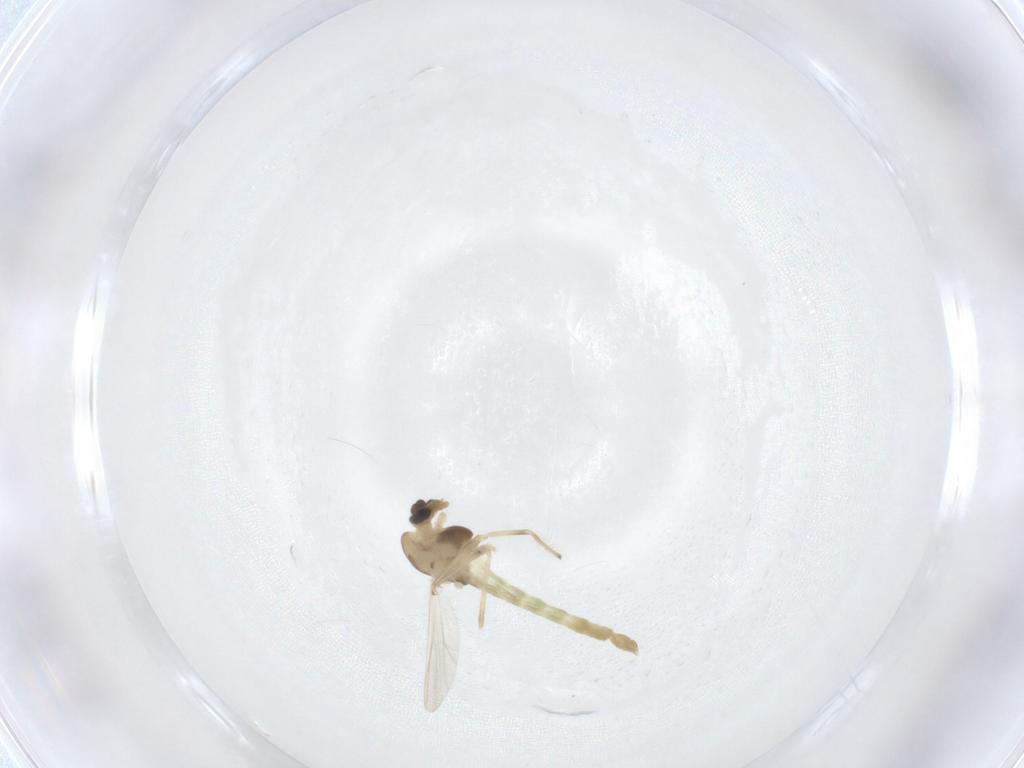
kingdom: Animalia
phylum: Arthropoda
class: Insecta
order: Diptera
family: Chironomidae
